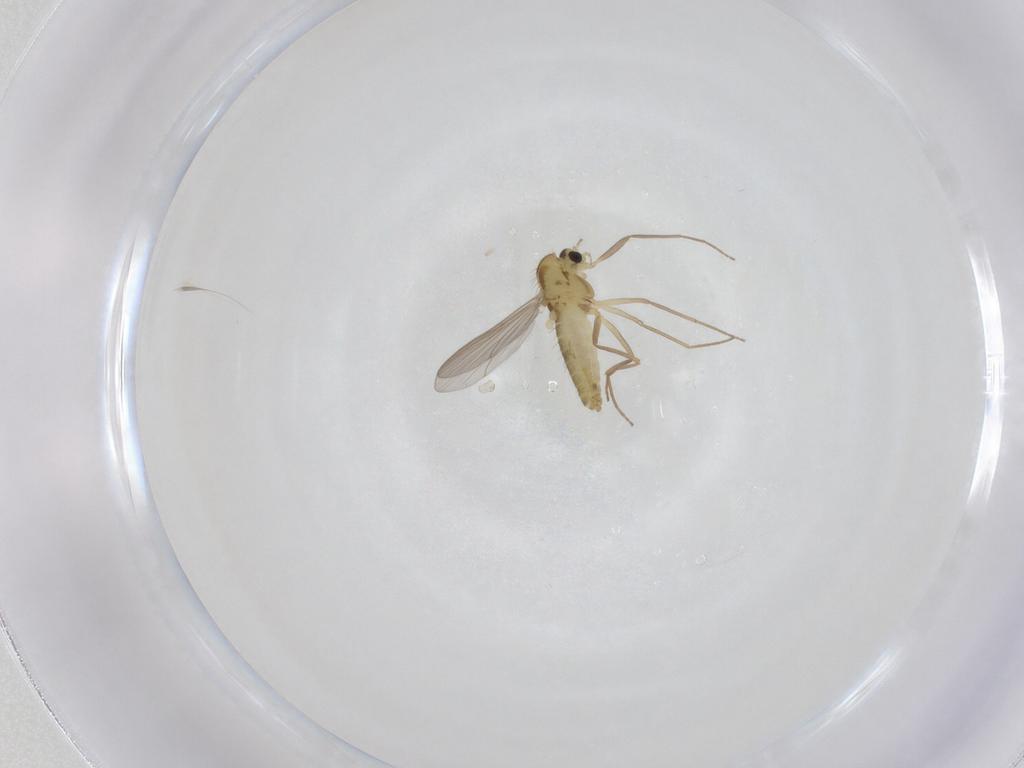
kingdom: Animalia
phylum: Arthropoda
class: Insecta
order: Diptera
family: Chironomidae
